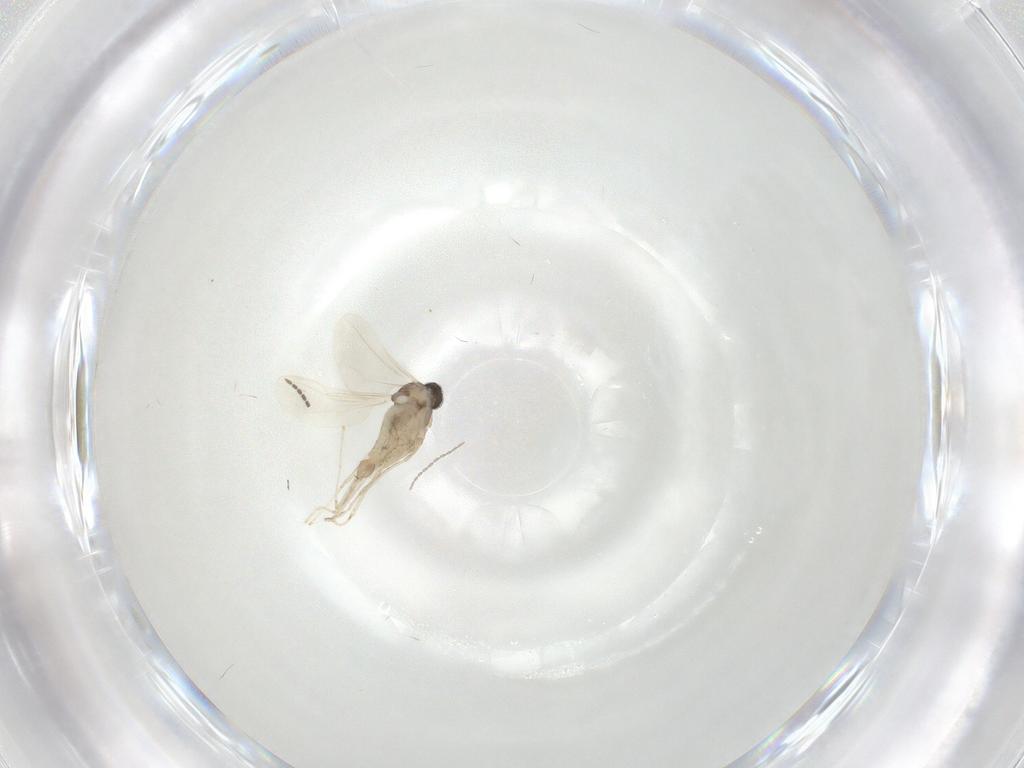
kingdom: Animalia
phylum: Arthropoda
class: Insecta
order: Diptera
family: Cecidomyiidae
